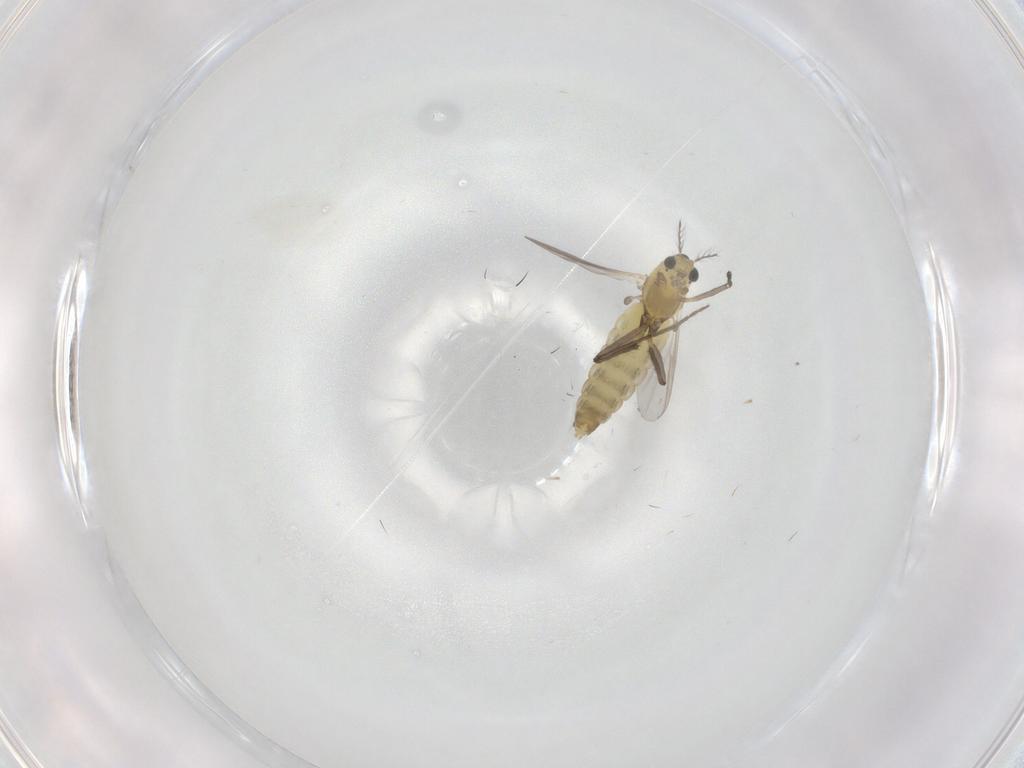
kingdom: Animalia
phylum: Arthropoda
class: Insecta
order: Diptera
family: Chironomidae
